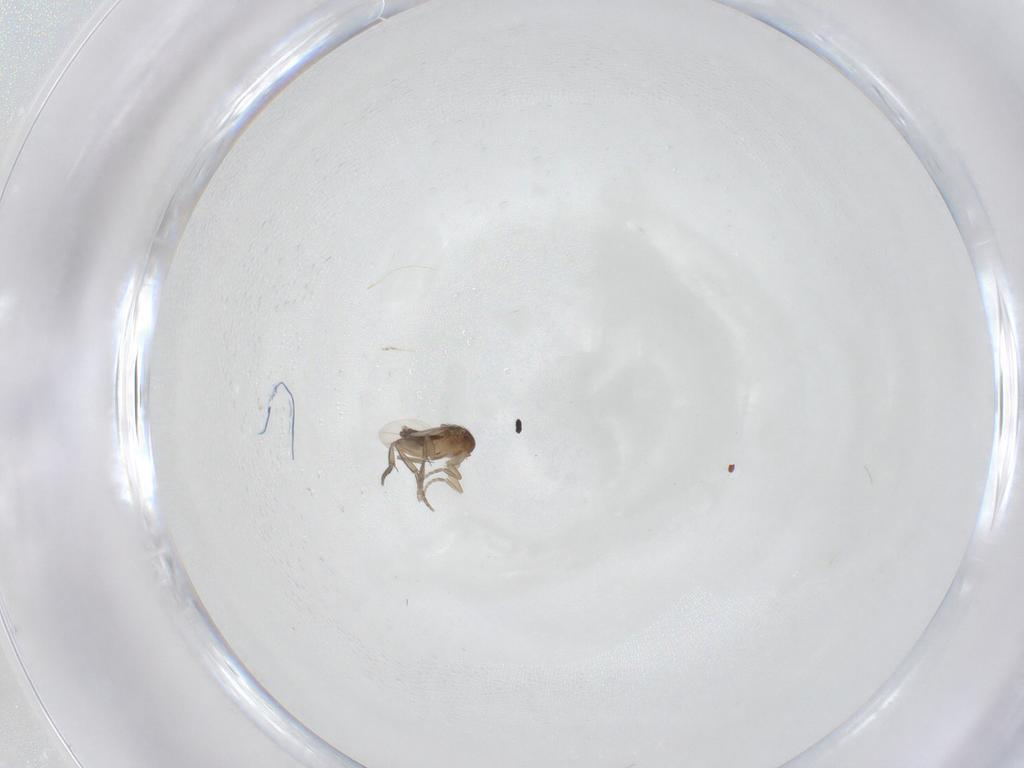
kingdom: Animalia
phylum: Arthropoda
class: Insecta
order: Diptera
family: Phoridae
